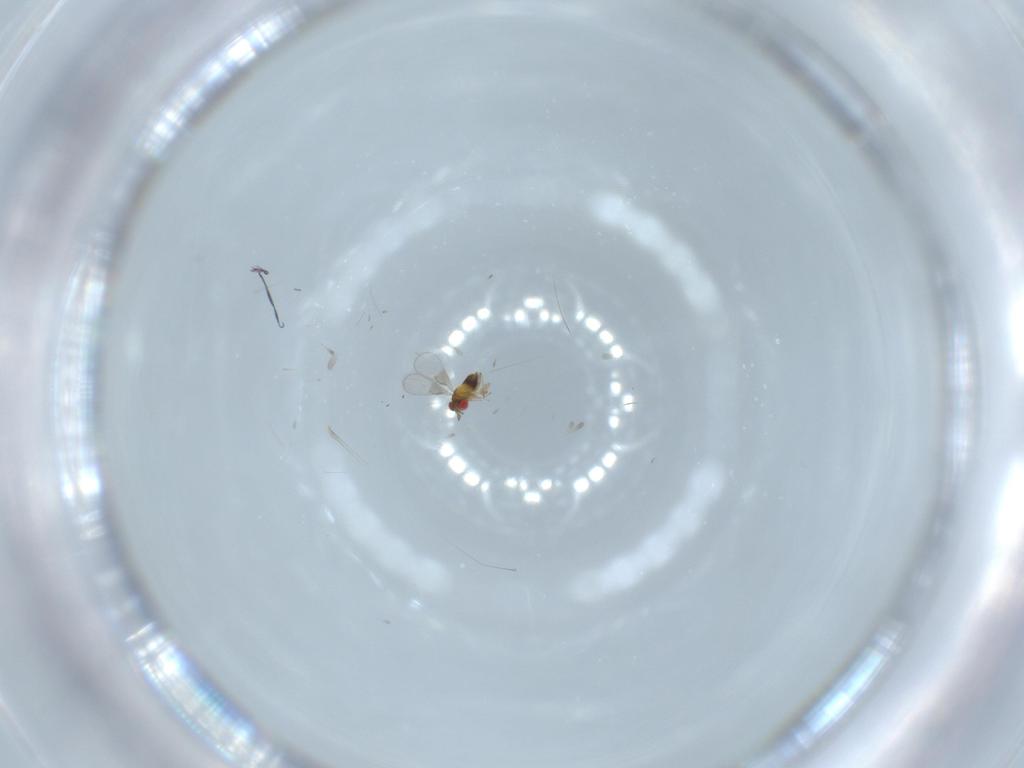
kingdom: Animalia
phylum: Arthropoda
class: Insecta
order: Hymenoptera
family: Trichogrammatidae
